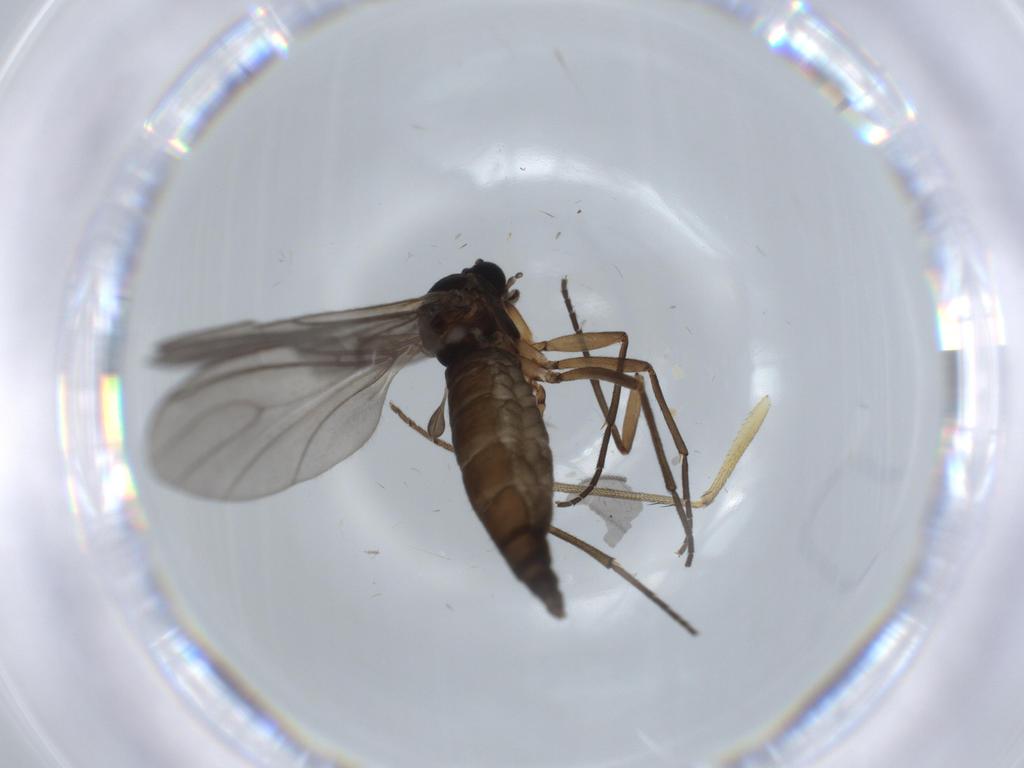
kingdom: Animalia
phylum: Arthropoda
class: Insecta
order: Diptera
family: Sciaridae
